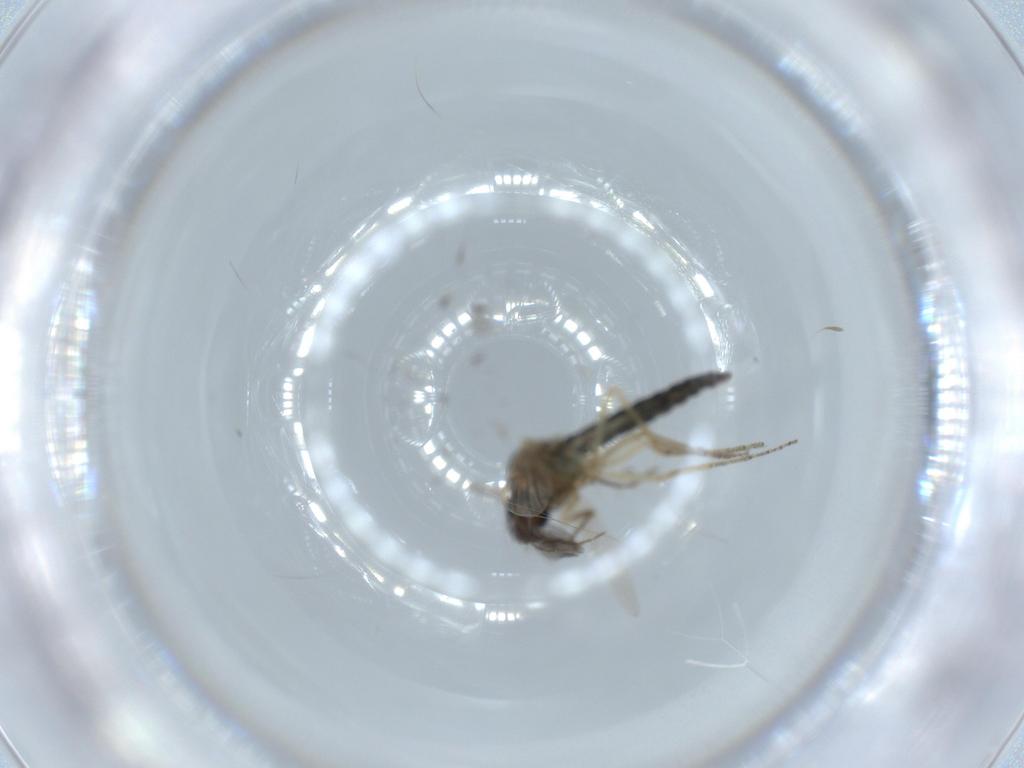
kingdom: Animalia
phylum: Arthropoda
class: Insecta
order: Diptera
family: Ceratopogonidae
